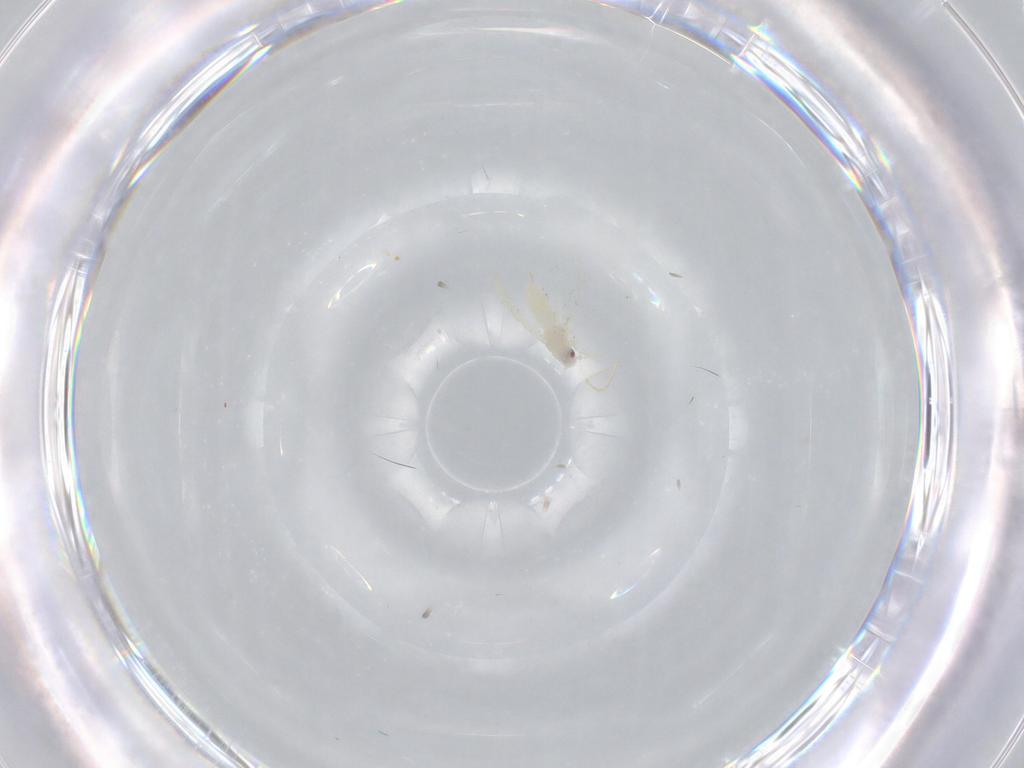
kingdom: Animalia
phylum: Arthropoda
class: Insecta
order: Hemiptera
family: Aleyrodidae
